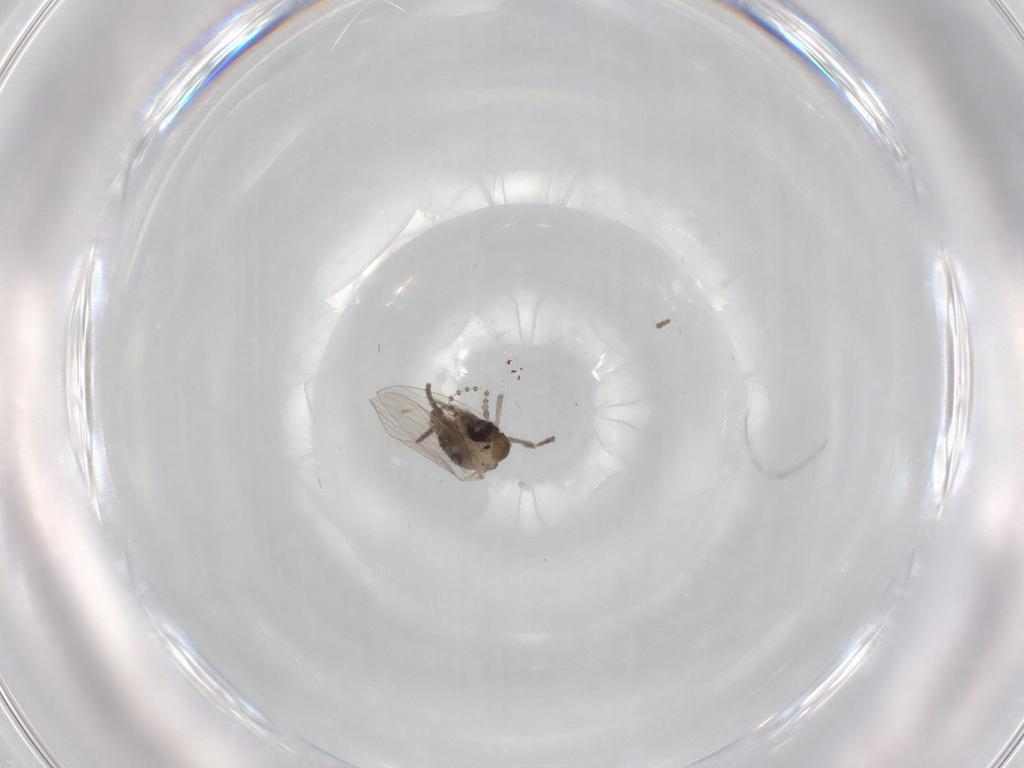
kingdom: Animalia
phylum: Arthropoda
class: Insecta
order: Diptera
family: Psychodidae
